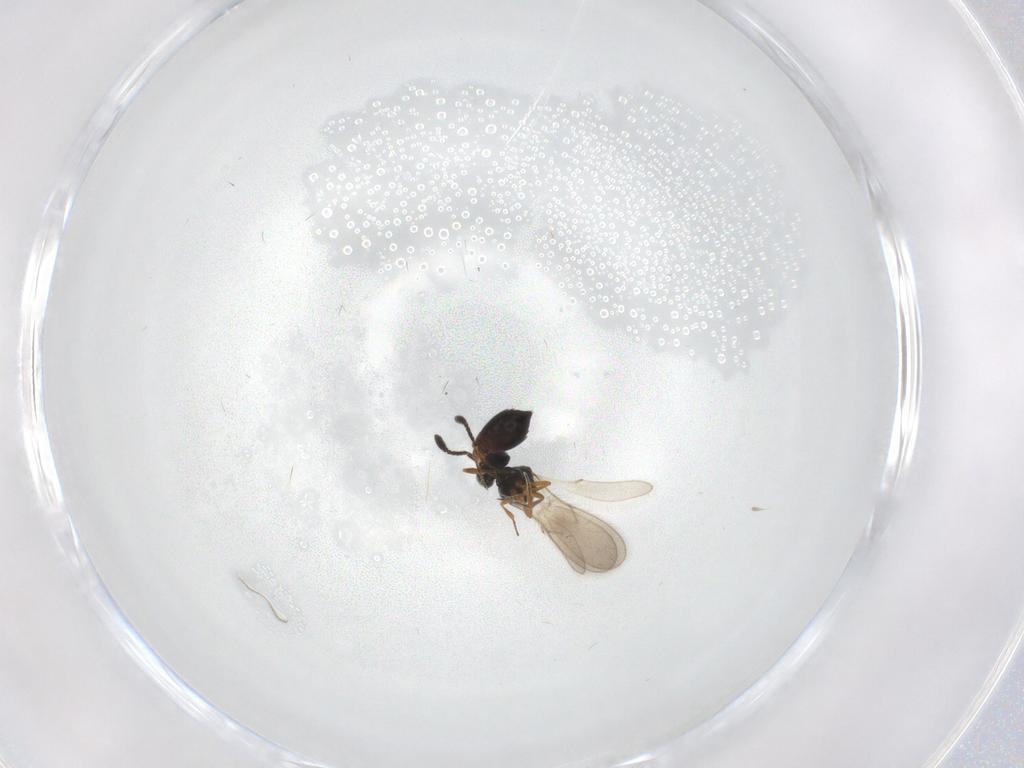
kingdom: Animalia
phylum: Arthropoda
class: Insecta
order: Hymenoptera
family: Scelionidae
